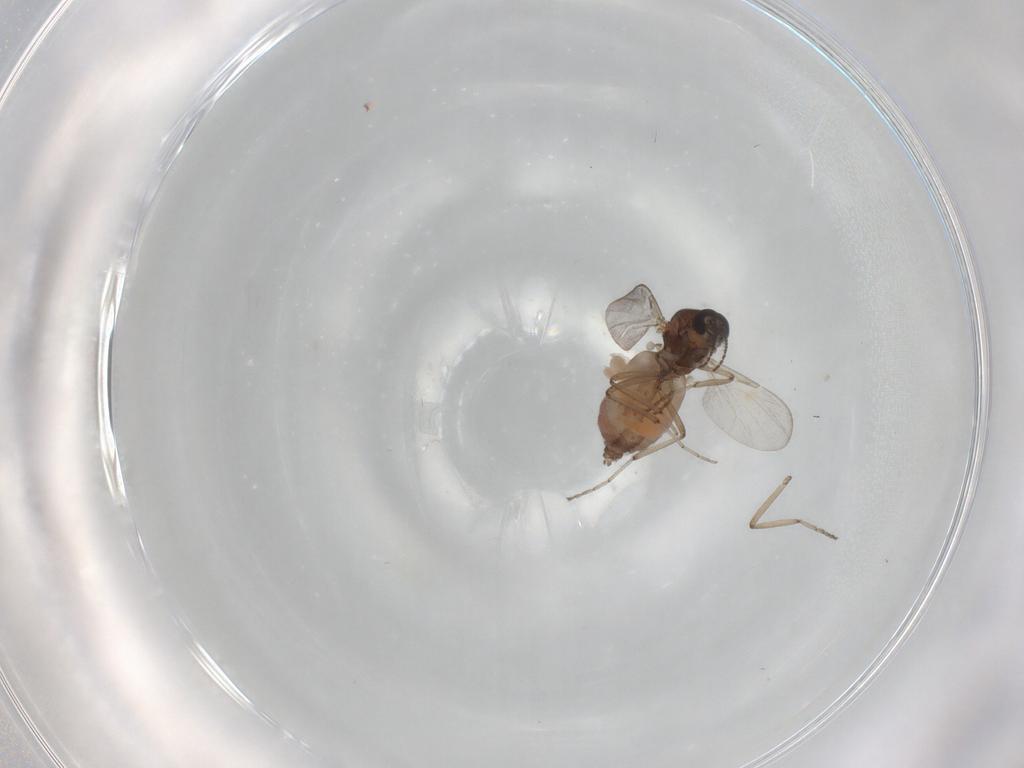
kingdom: Animalia
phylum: Arthropoda
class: Insecta
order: Diptera
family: Ceratopogonidae
